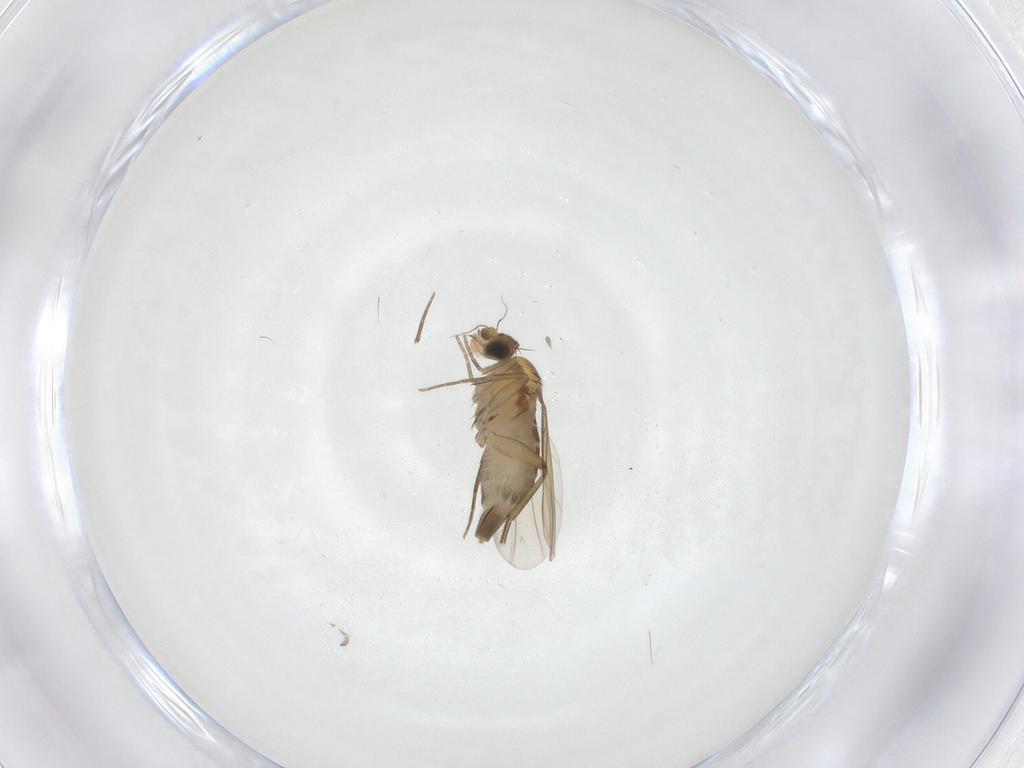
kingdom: Animalia
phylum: Arthropoda
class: Insecta
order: Diptera
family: Phoridae
